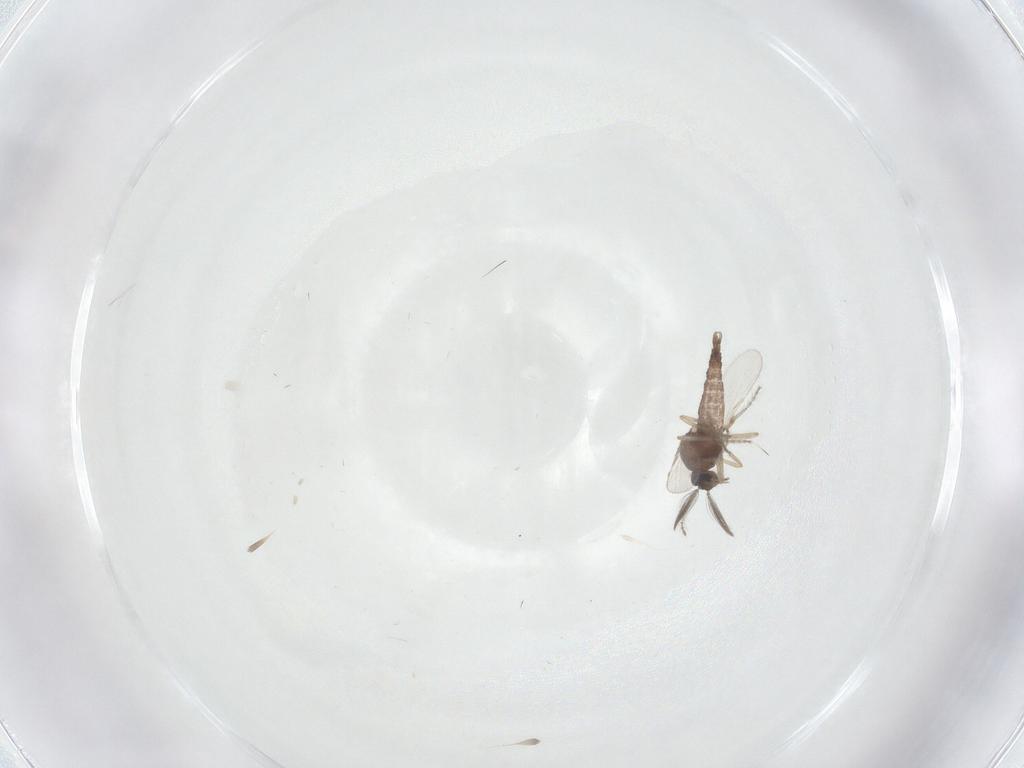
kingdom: Animalia
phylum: Arthropoda
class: Insecta
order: Diptera
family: Ceratopogonidae
